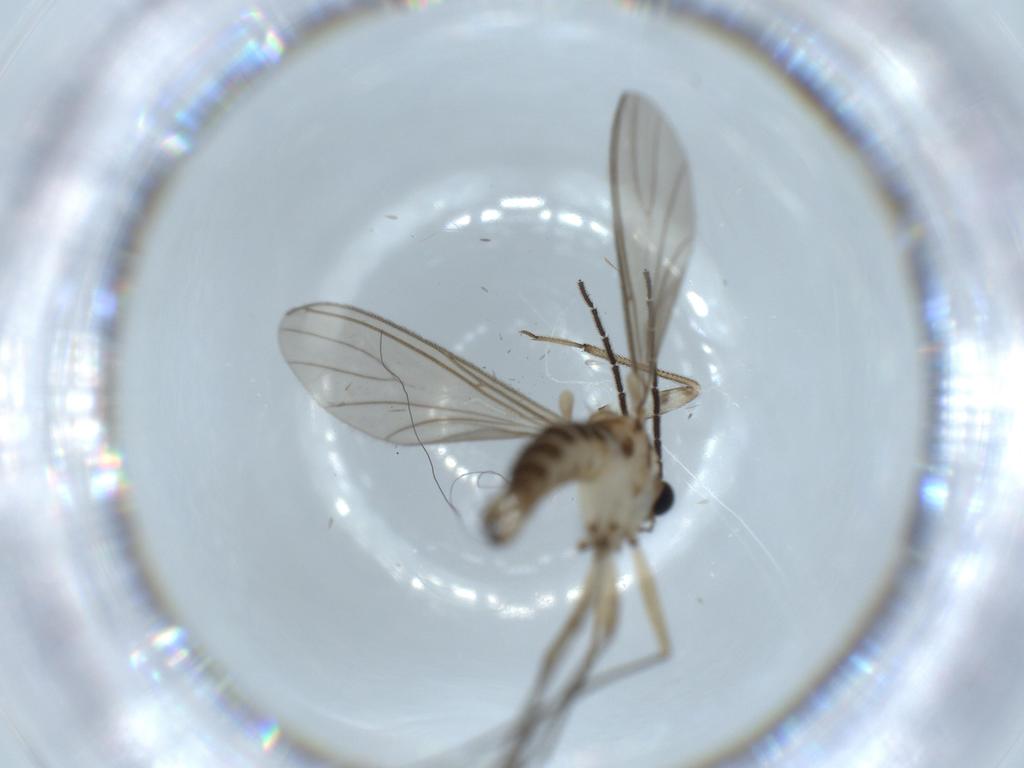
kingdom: Animalia
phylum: Arthropoda
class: Insecta
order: Diptera
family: Sciaridae
